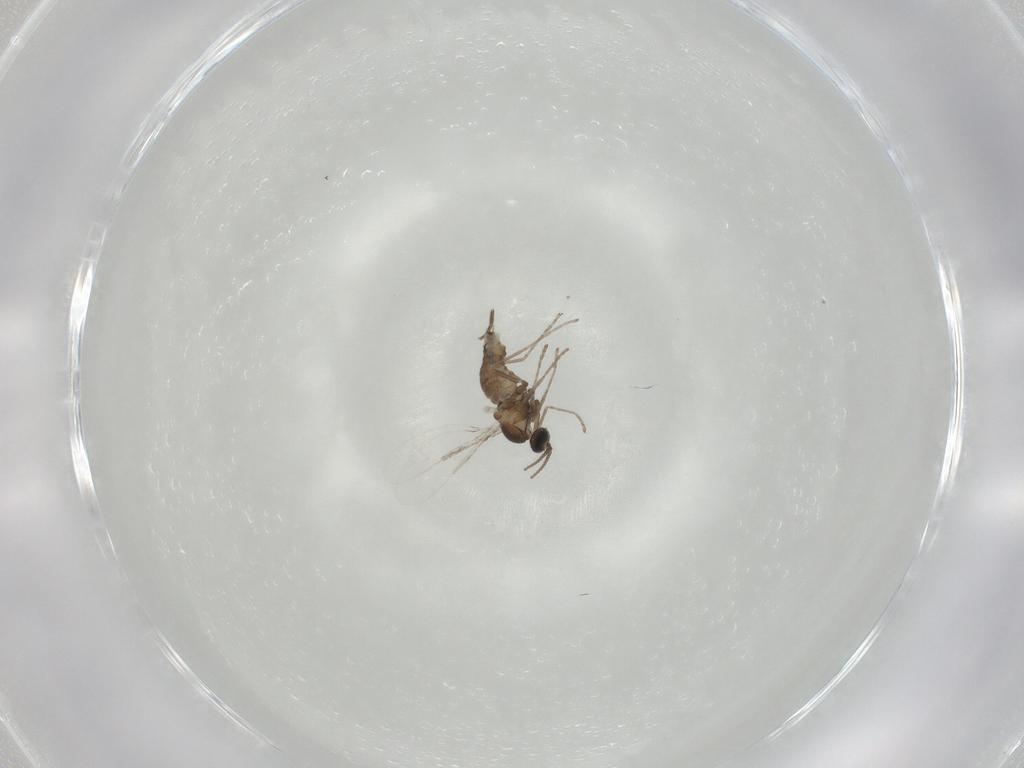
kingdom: Animalia
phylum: Arthropoda
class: Insecta
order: Diptera
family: Cecidomyiidae
